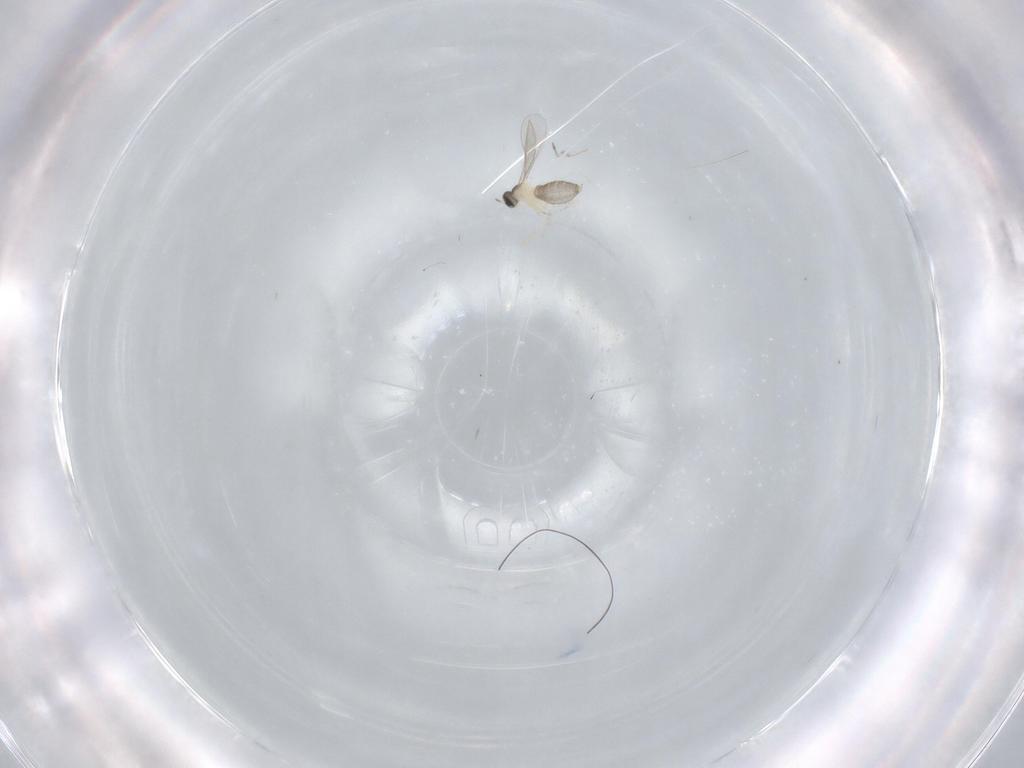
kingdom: Animalia
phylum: Arthropoda
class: Insecta
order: Diptera
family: Cecidomyiidae
